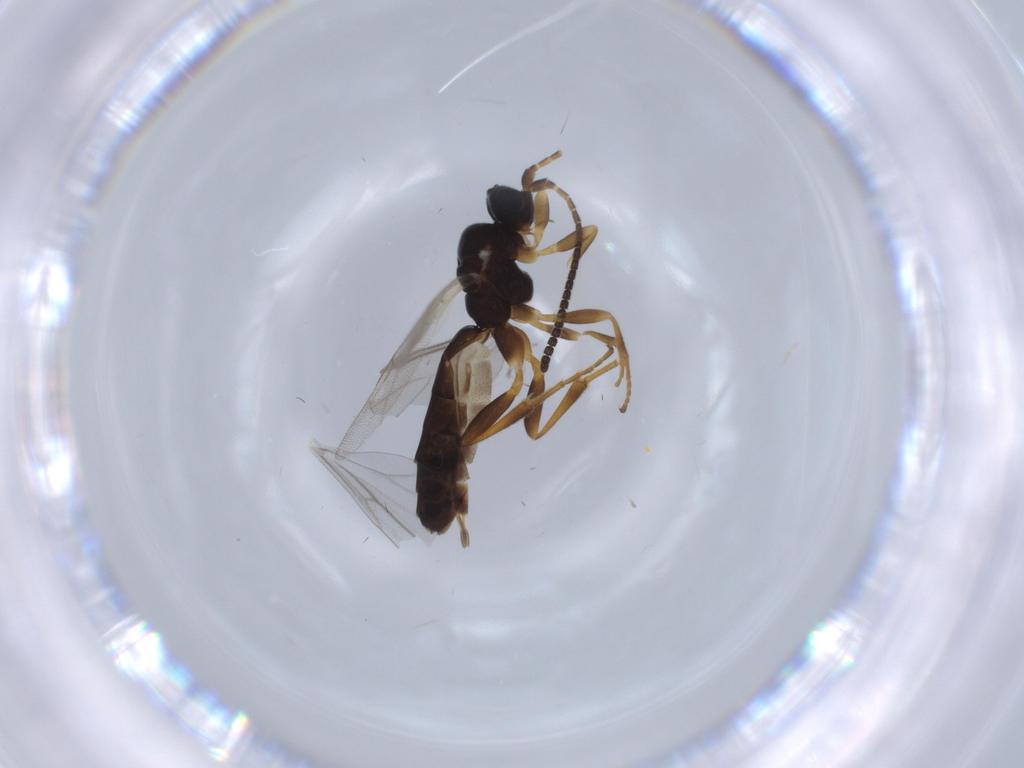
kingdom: Animalia
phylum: Arthropoda
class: Insecta
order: Hymenoptera
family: Ichneumonidae
